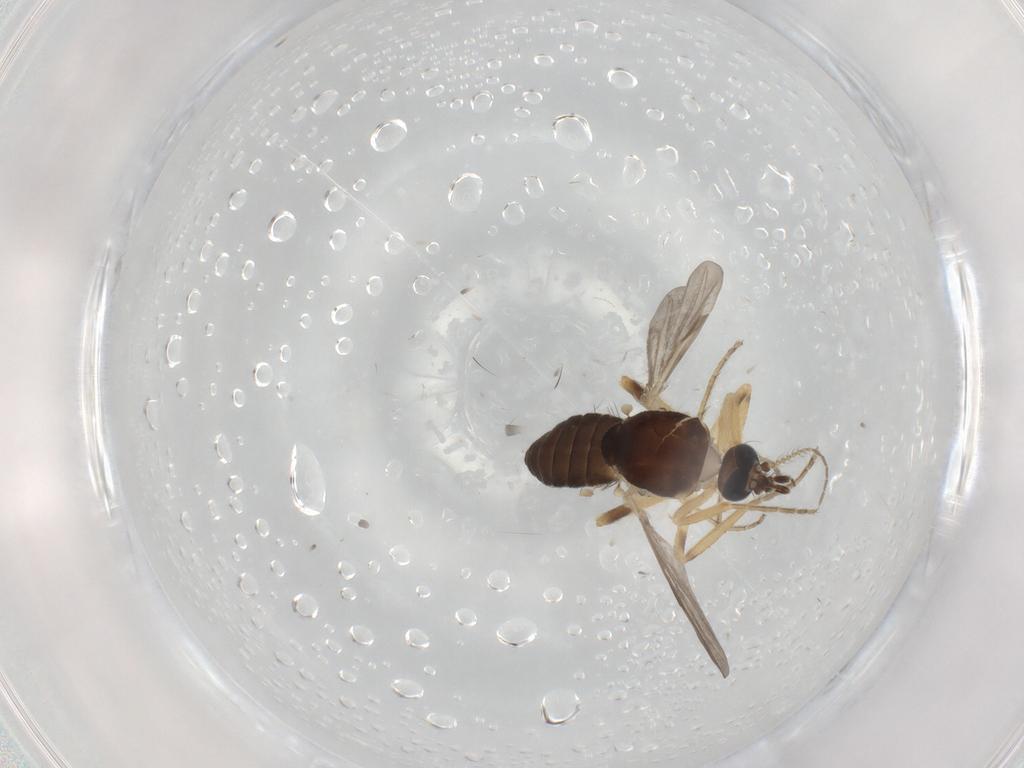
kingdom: Animalia
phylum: Arthropoda
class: Insecta
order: Diptera
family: Ceratopogonidae
